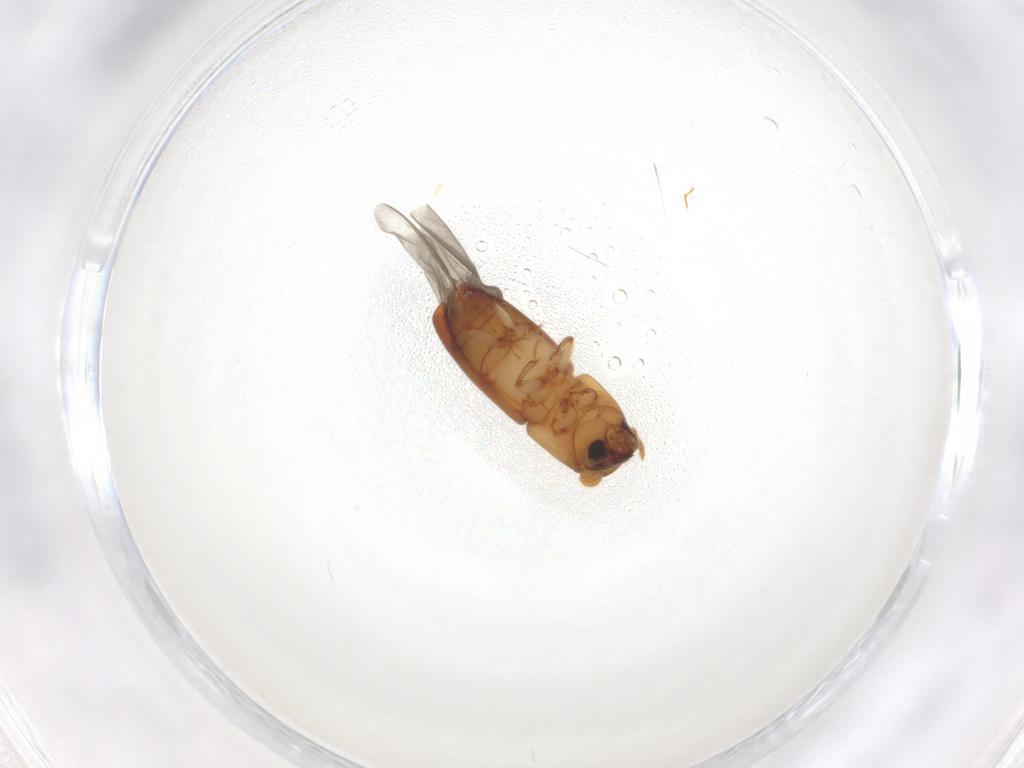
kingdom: Animalia
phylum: Arthropoda
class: Insecta
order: Coleoptera
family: Curculionidae
